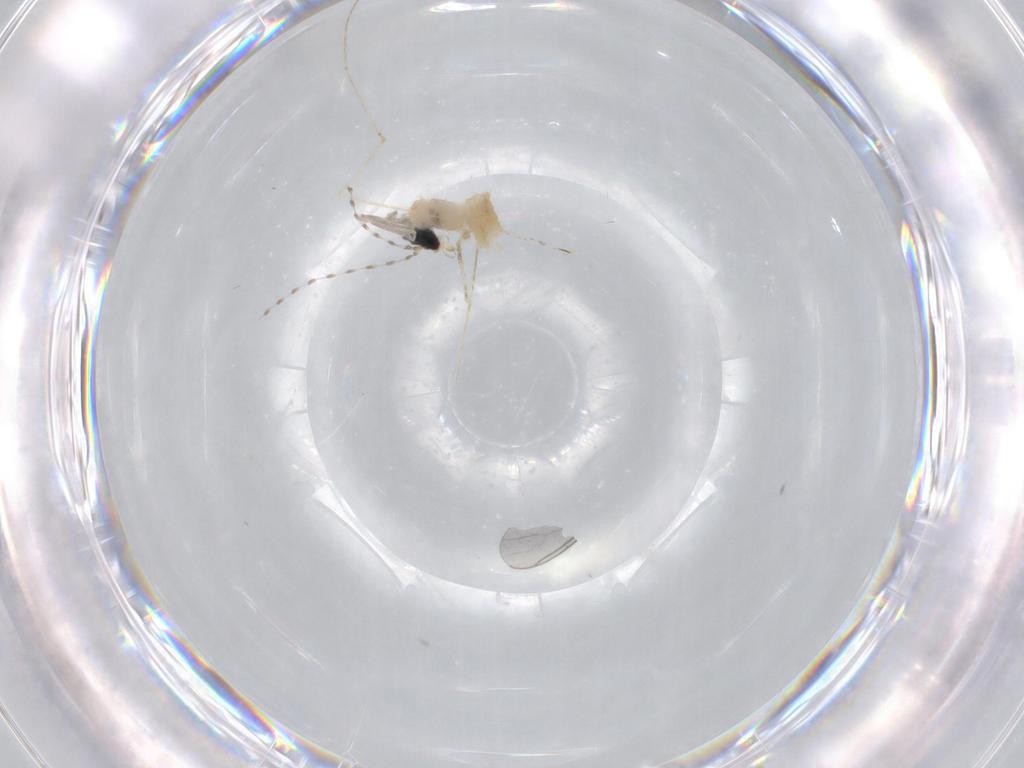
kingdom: Animalia
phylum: Arthropoda
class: Insecta
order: Diptera
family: Cecidomyiidae
